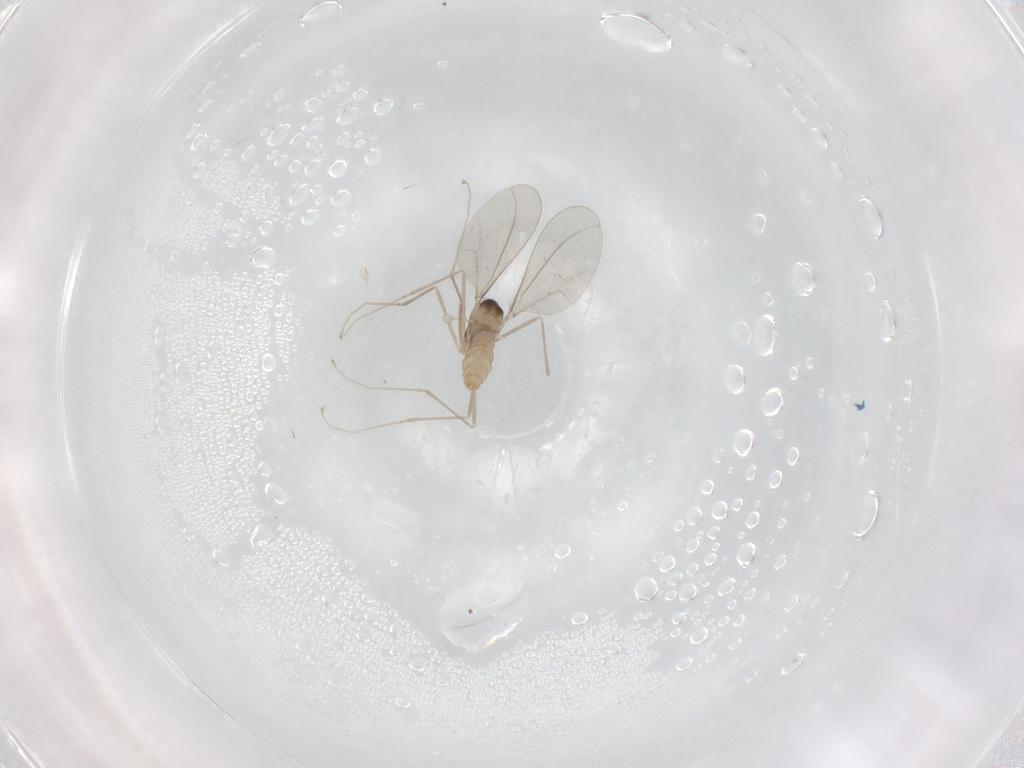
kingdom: Animalia
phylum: Arthropoda
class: Insecta
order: Diptera
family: Cecidomyiidae
